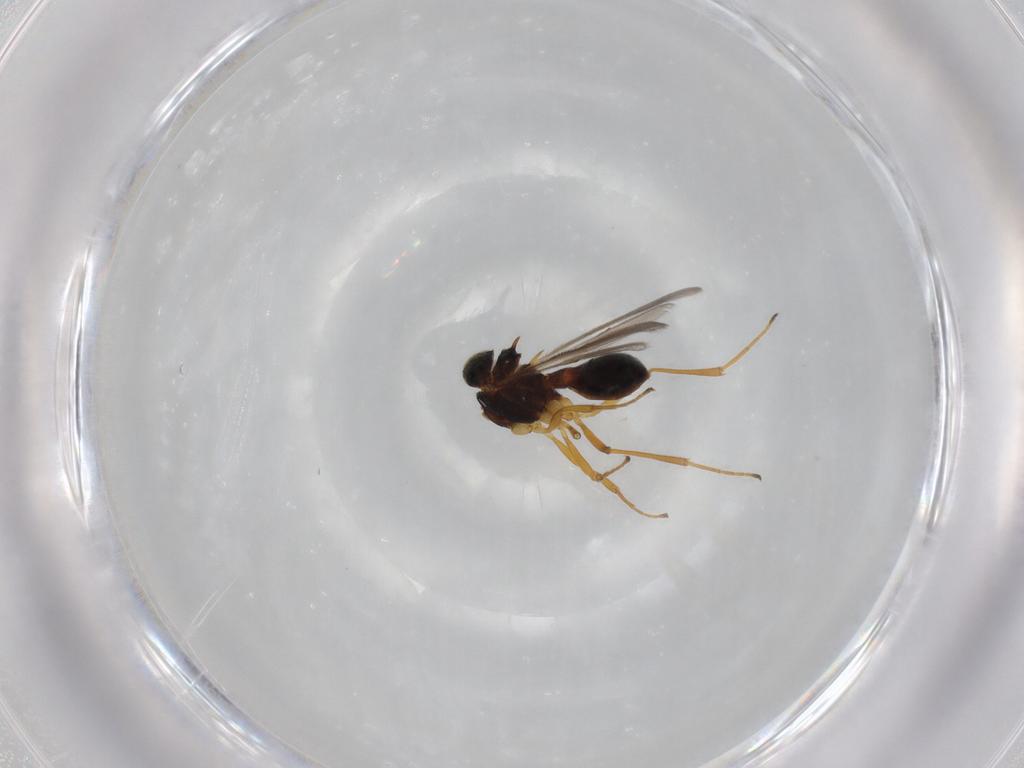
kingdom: Animalia
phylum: Arthropoda
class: Insecta
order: Hymenoptera
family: Scelionidae
